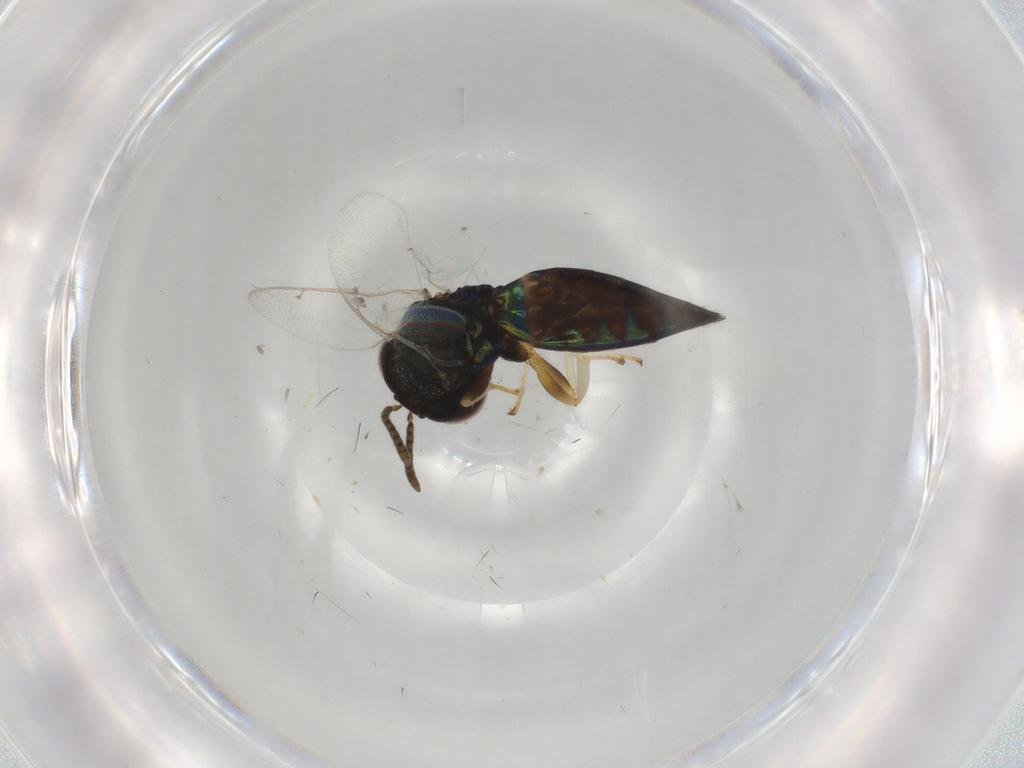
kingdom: Animalia
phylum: Arthropoda
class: Insecta
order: Hymenoptera
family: Pteromalidae
